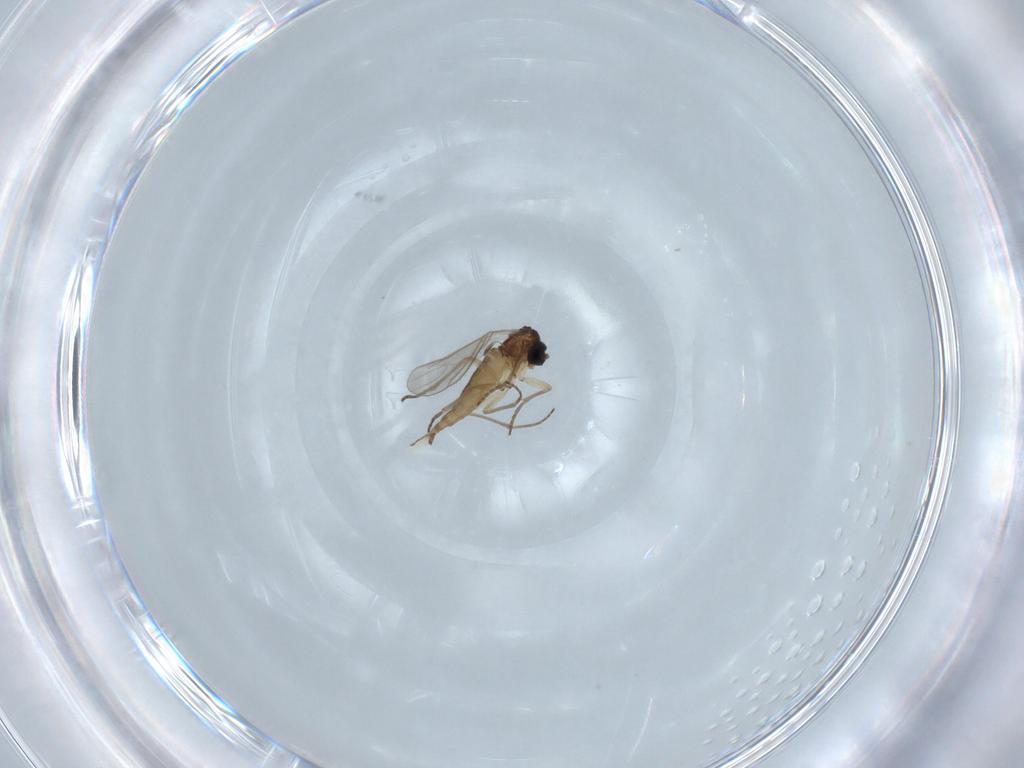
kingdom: Animalia
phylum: Arthropoda
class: Insecta
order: Diptera
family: Sciaridae
